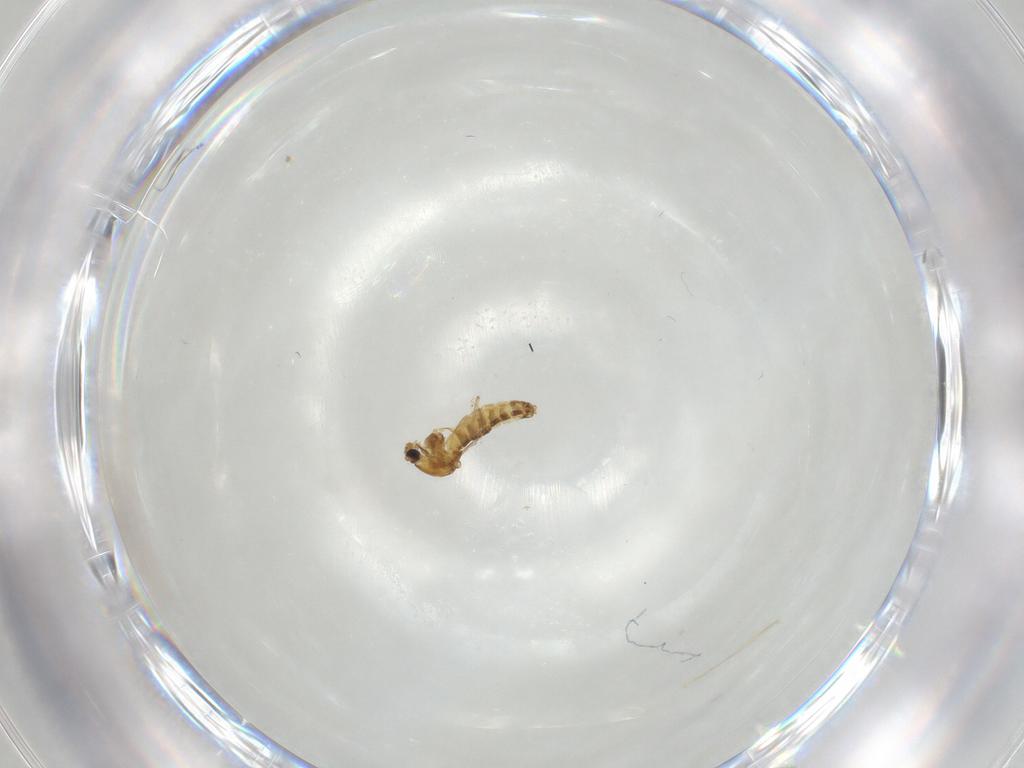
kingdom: Animalia
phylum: Arthropoda
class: Insecta
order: Diptera
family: Chironomidae
